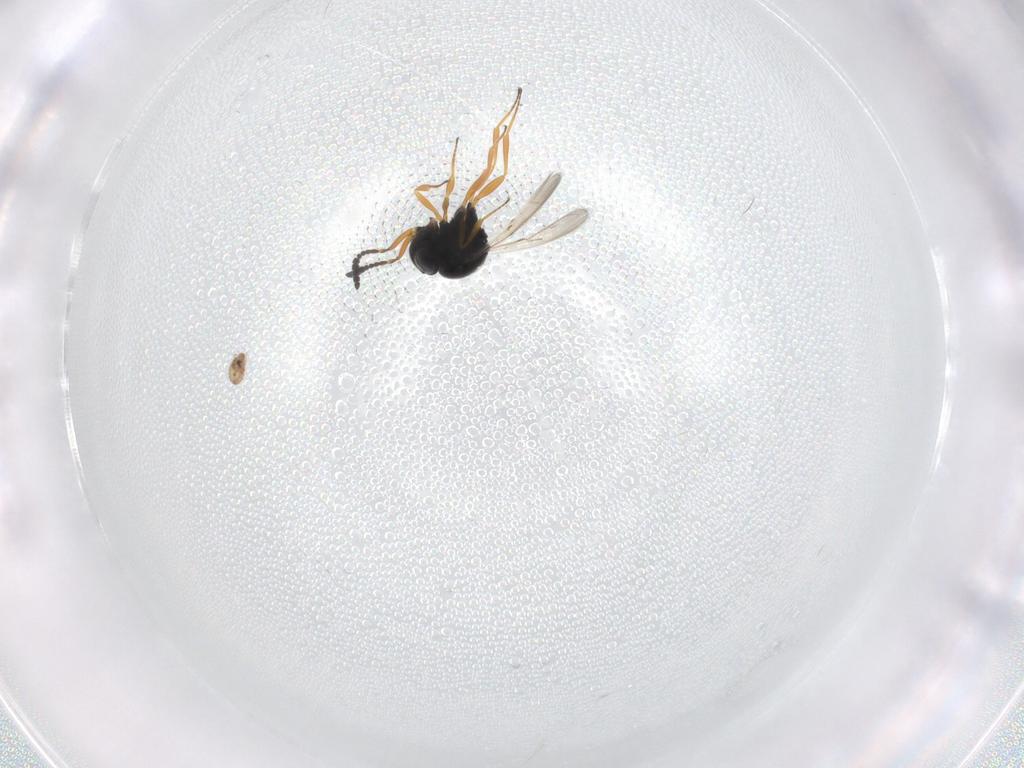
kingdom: Animalia
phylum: Arthropoda
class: Insecta
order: Hymenoptera
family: Scelionidae
